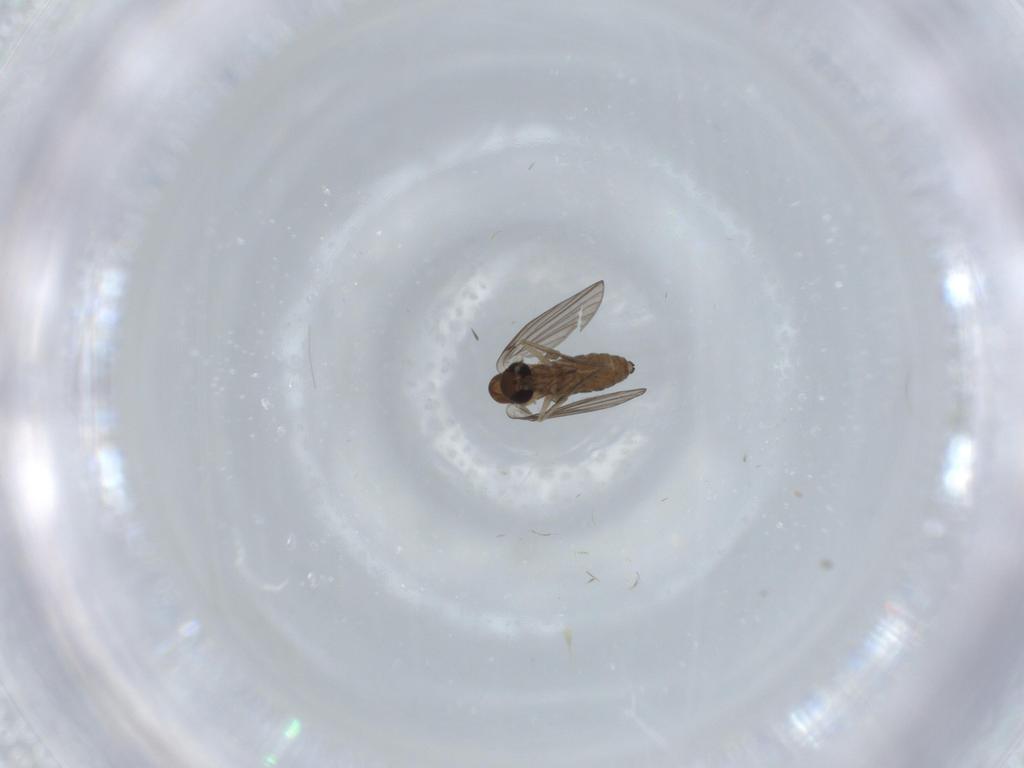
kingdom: Animalia
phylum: Arthropoda
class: Insecta
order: Diptera
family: Psychodidae
